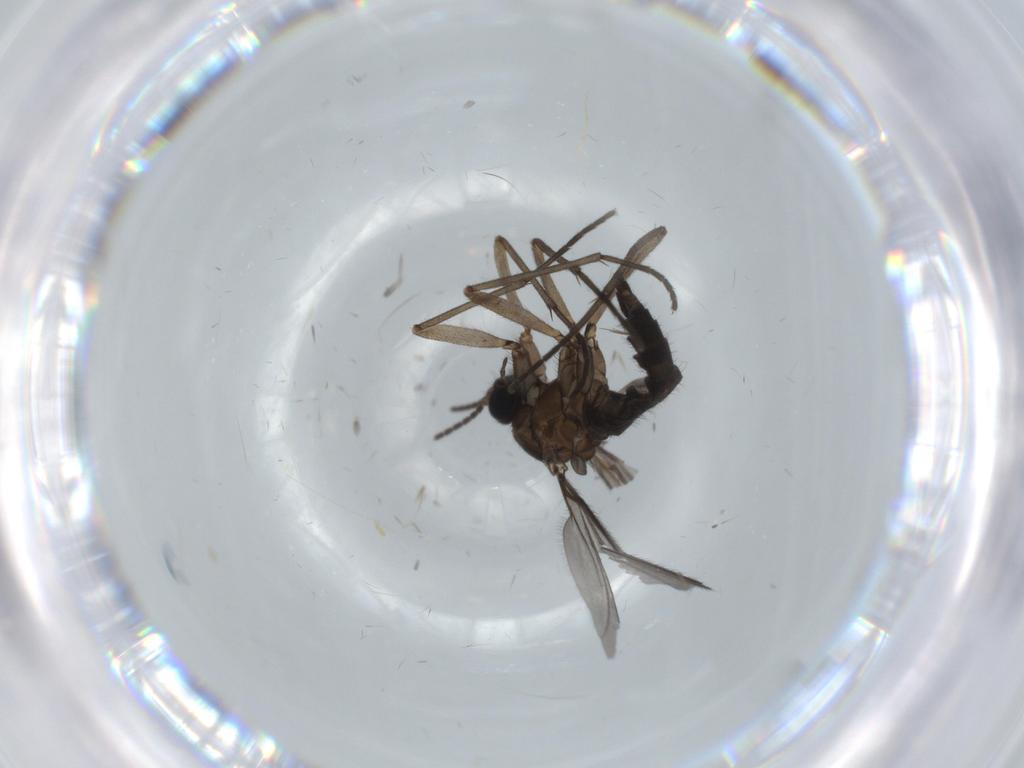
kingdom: Animalia
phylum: Arthropoda
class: Insecta
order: Diptera
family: Sciaridae
